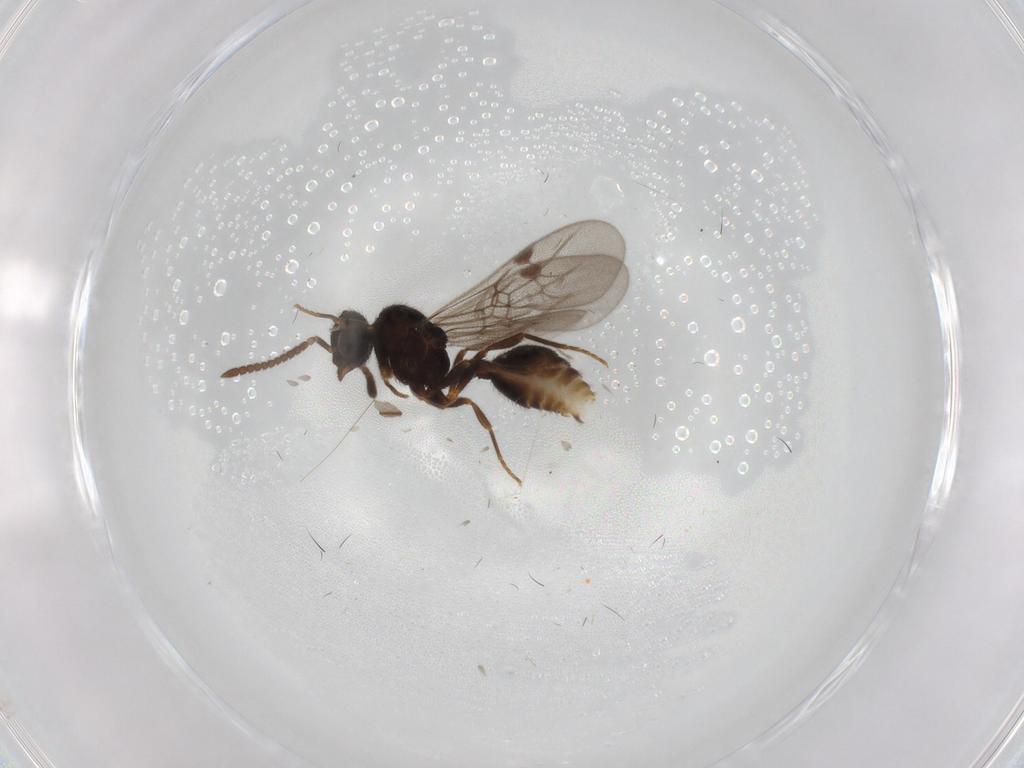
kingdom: Animalia
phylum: Arthropoda
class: Insecta
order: Hymenoptera
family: Formicidae
